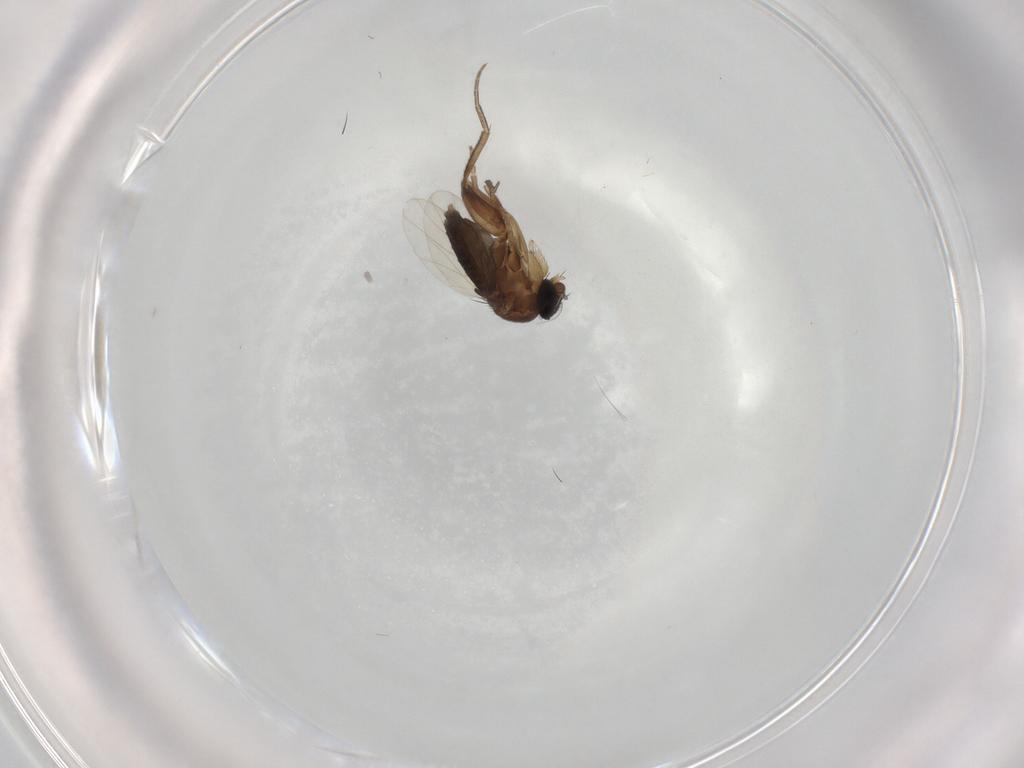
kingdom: Animalia
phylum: Arthropoda
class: Insecta
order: Diptera
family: Phoridae
